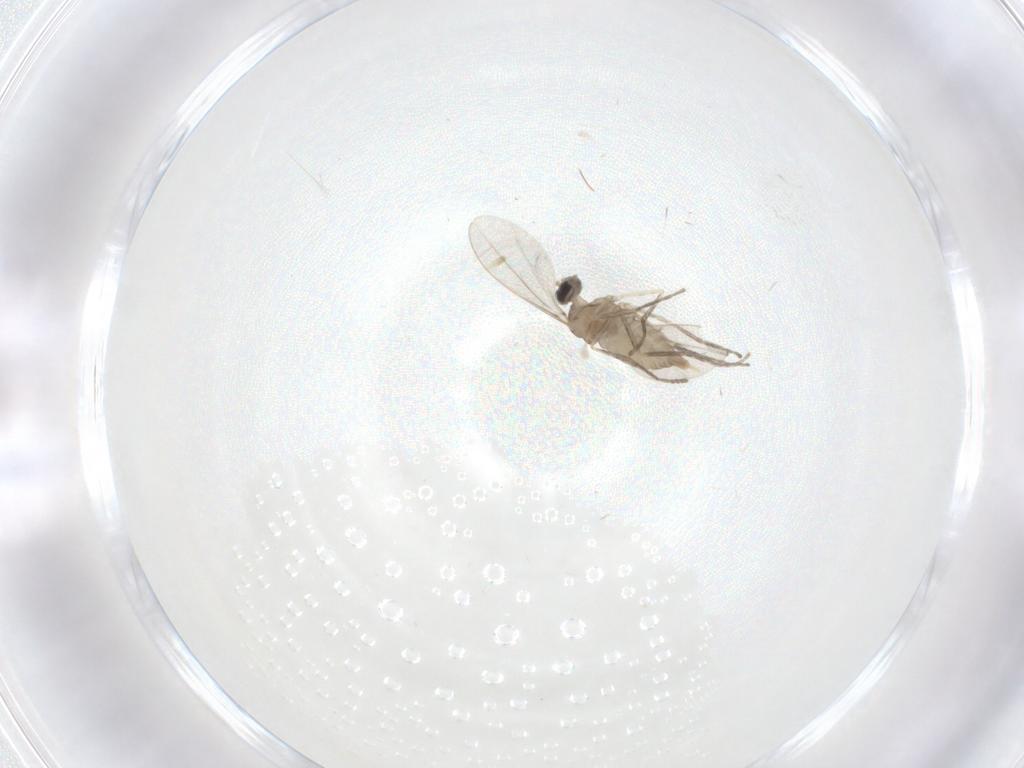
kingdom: Animalia
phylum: Arthropoda
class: Insecta
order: Diptera
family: Cecidomyiidae
